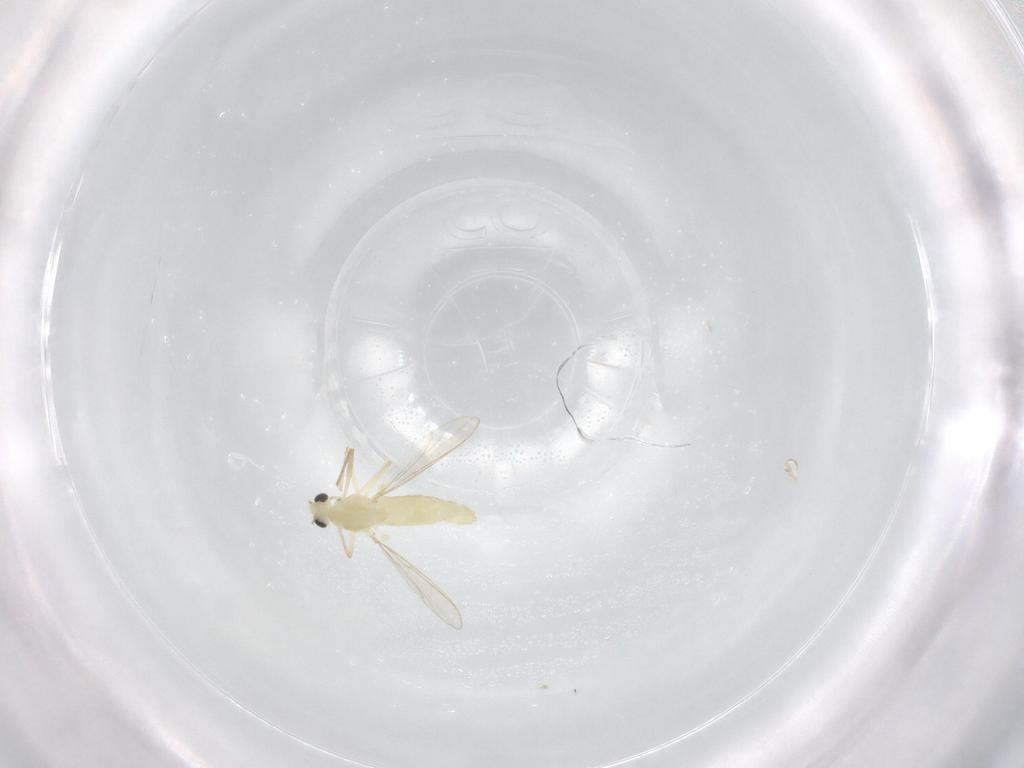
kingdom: Animalia
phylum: Arthropoda
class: Insecta
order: Diptera
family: Chironomidae
